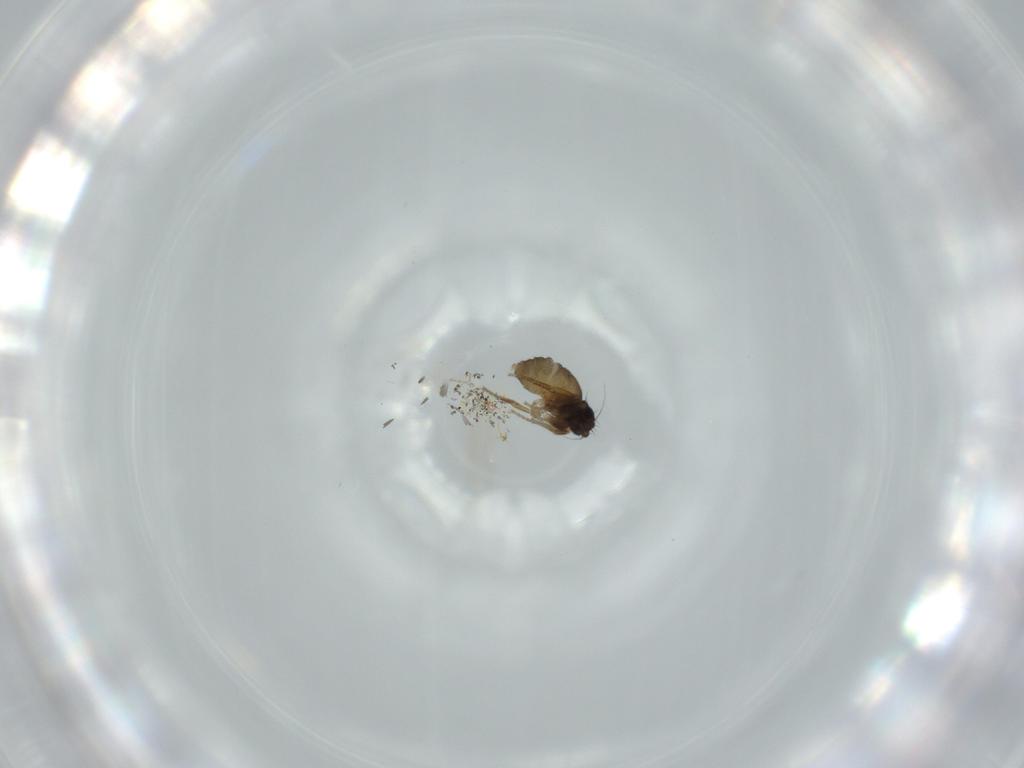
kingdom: Animalia
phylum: Arthropoda
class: Insecta
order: Diptera
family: Phoridae
